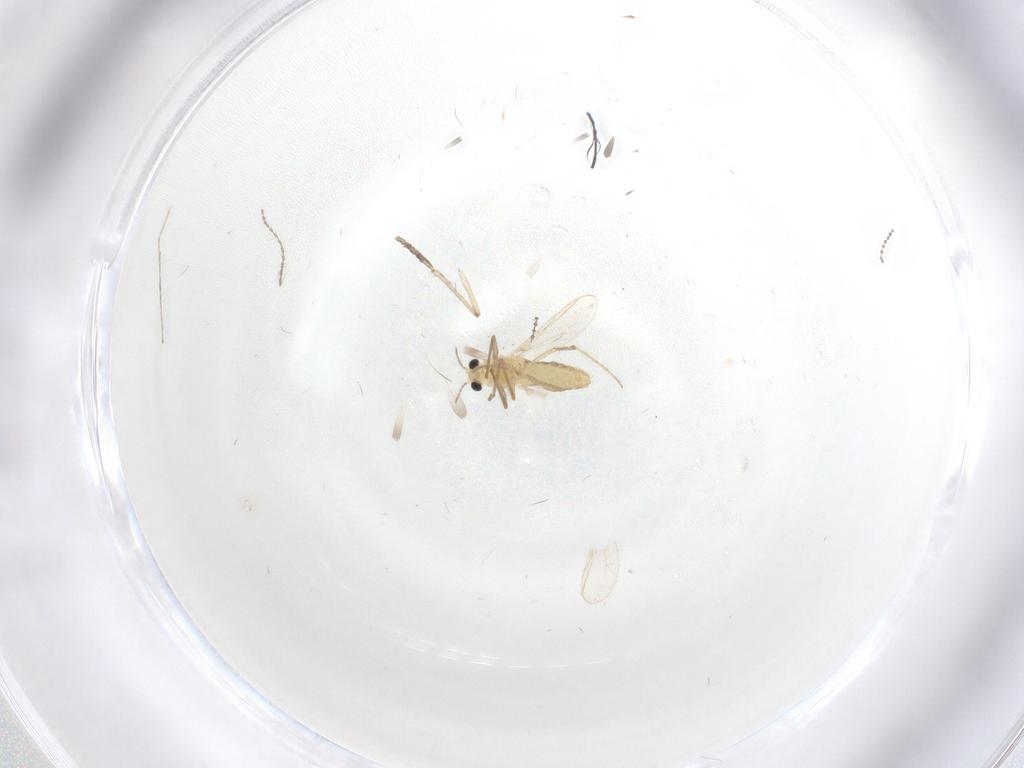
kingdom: Animalia
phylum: Arthropoda
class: Insecta
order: Diptera
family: Chironomidae
